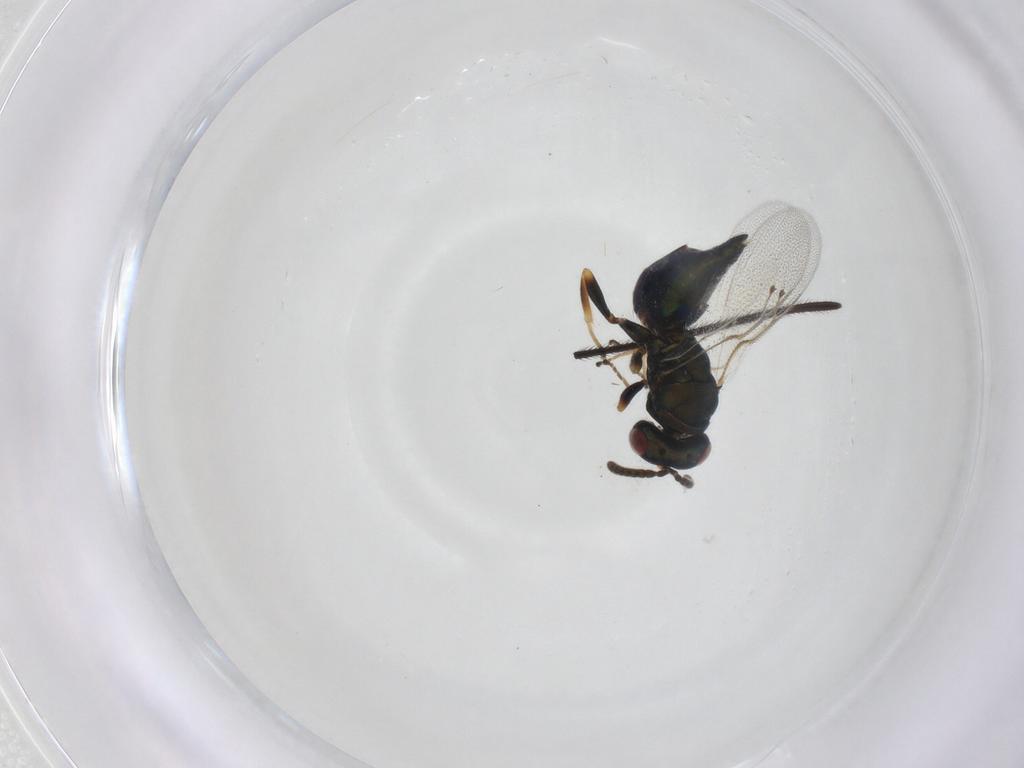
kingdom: Animalia
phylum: Arthropoda
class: Insecta
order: Hymenoptera
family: Pteromalidae
